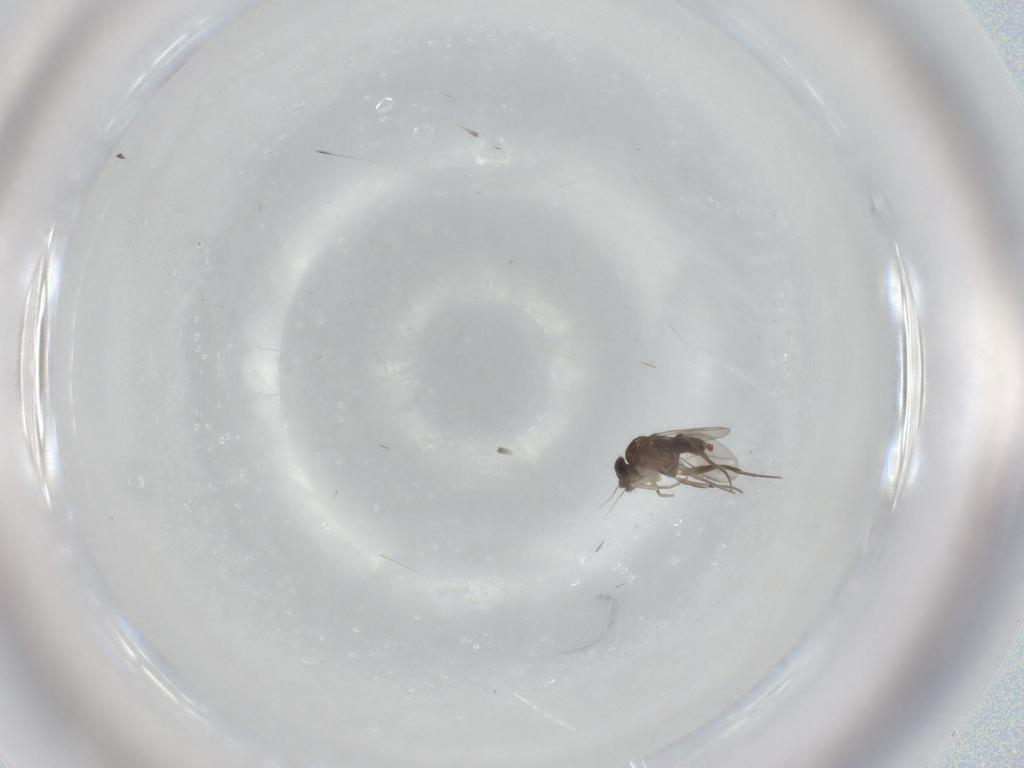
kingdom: Animalia
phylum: Arthropoda
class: Insecta
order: Diptera
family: Phoridae
